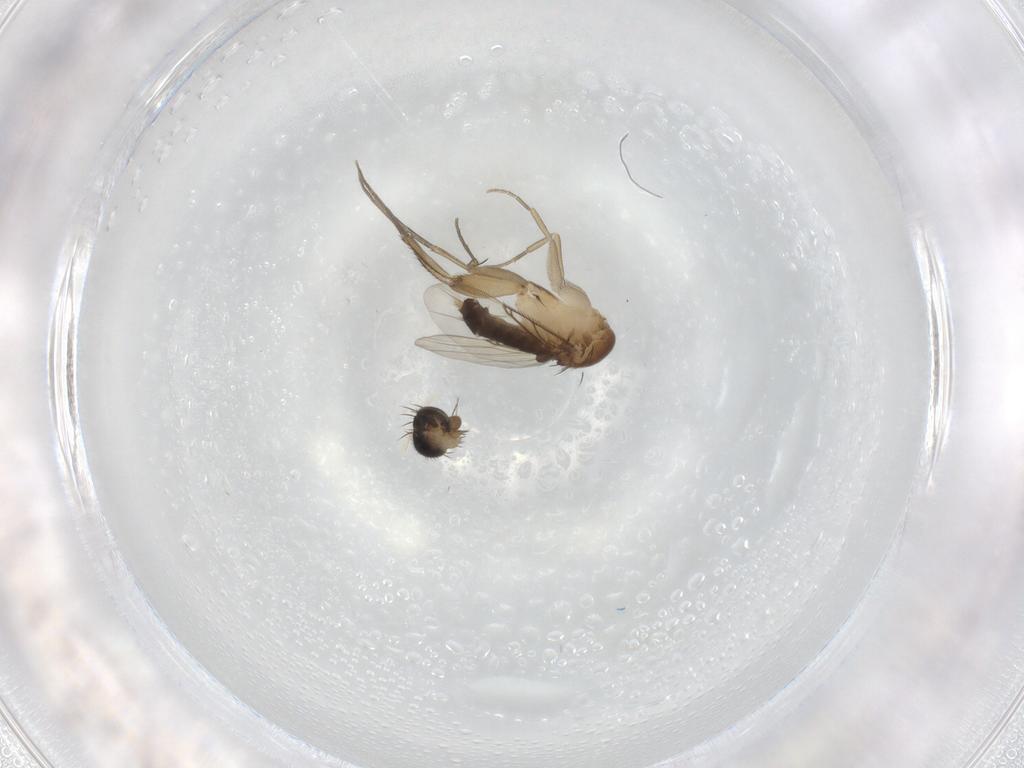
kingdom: Animalia
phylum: Arthropoda
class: Insecta
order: Diptera
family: Phoridae
